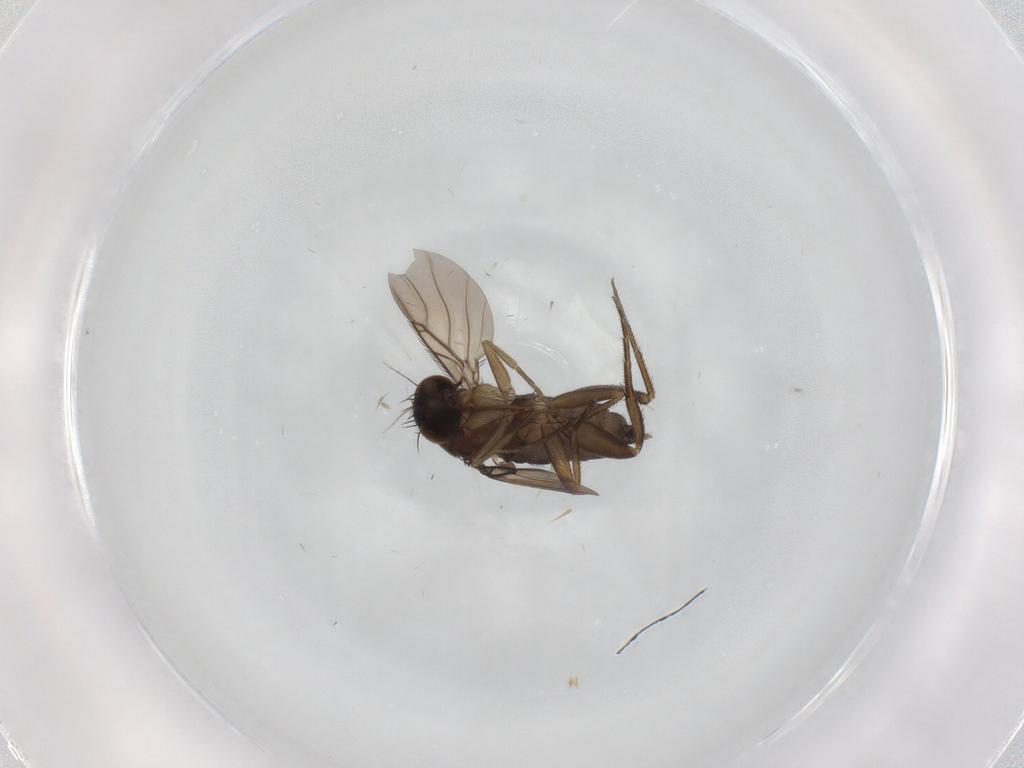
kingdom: Animalia
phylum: Arthropoda
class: Insecta
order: Diptera
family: Phoridae
